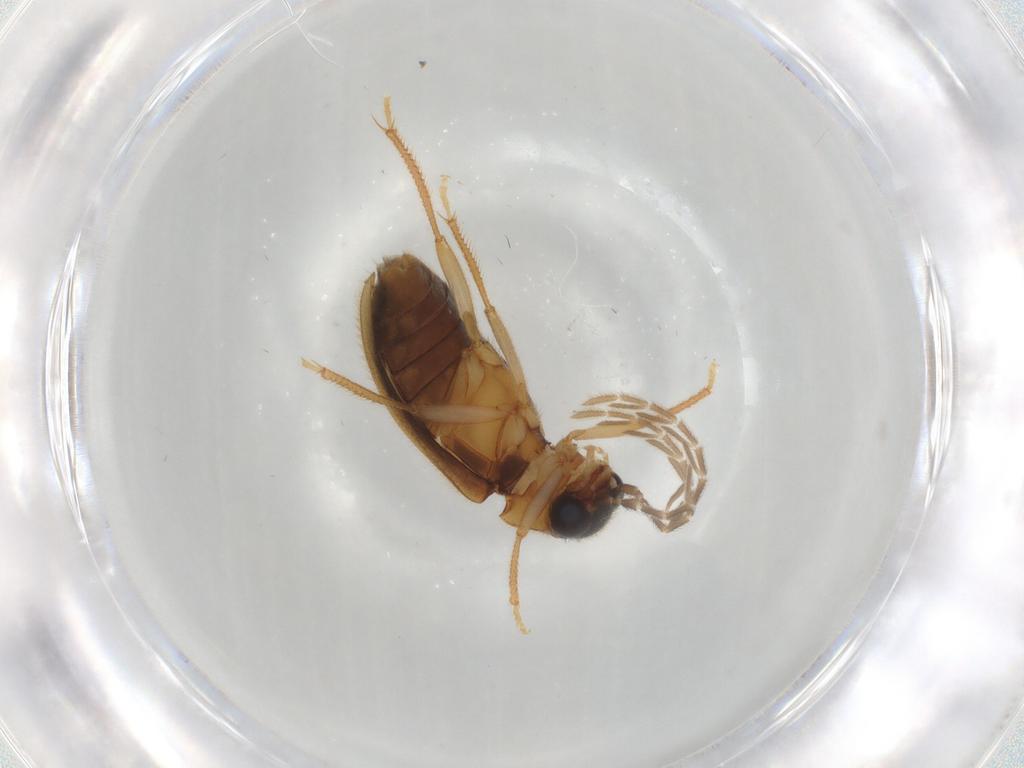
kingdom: Animalia
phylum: Arthropoda
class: Insecta
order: Coleoptera
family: Ptilodactylidae
